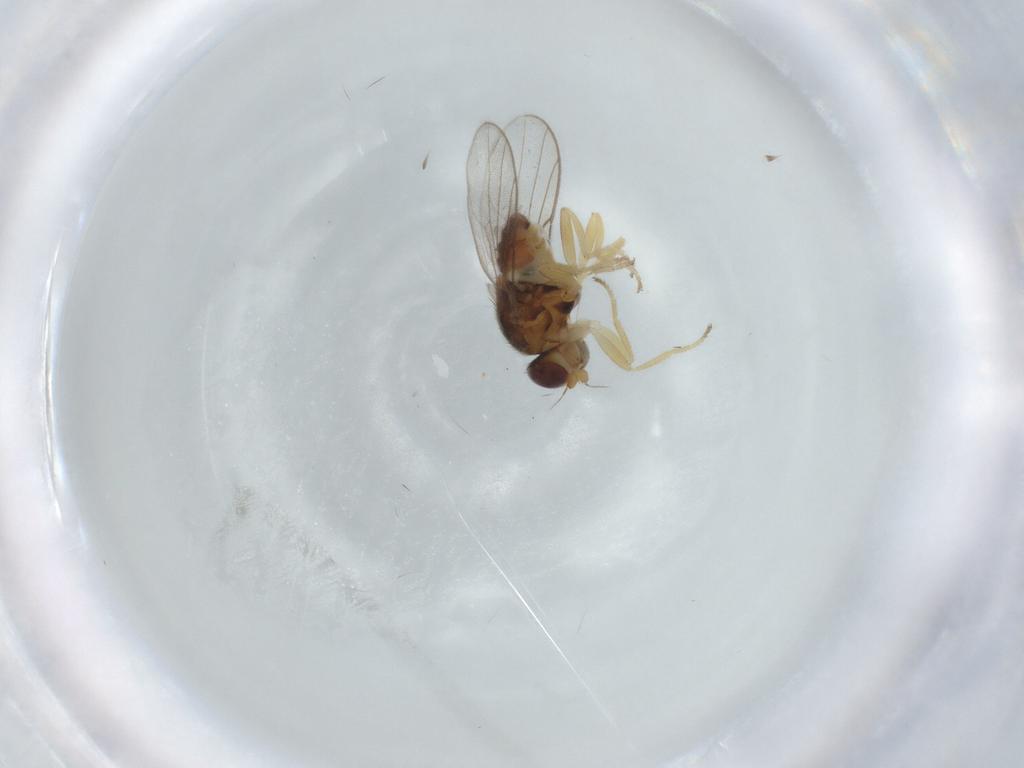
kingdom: Animalia
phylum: Arthropoda
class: Insecta
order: Diptera
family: Chloropidae
